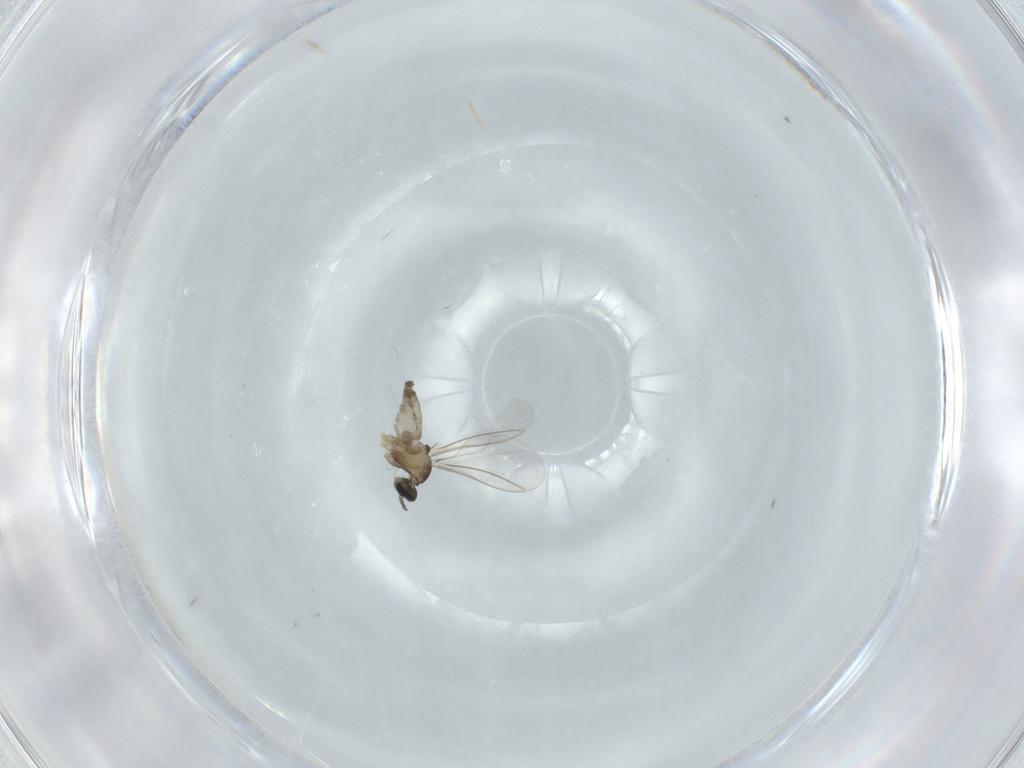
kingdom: Animalia
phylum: Arthropoda
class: Insecta
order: Diptera
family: Cecidomyiidae
